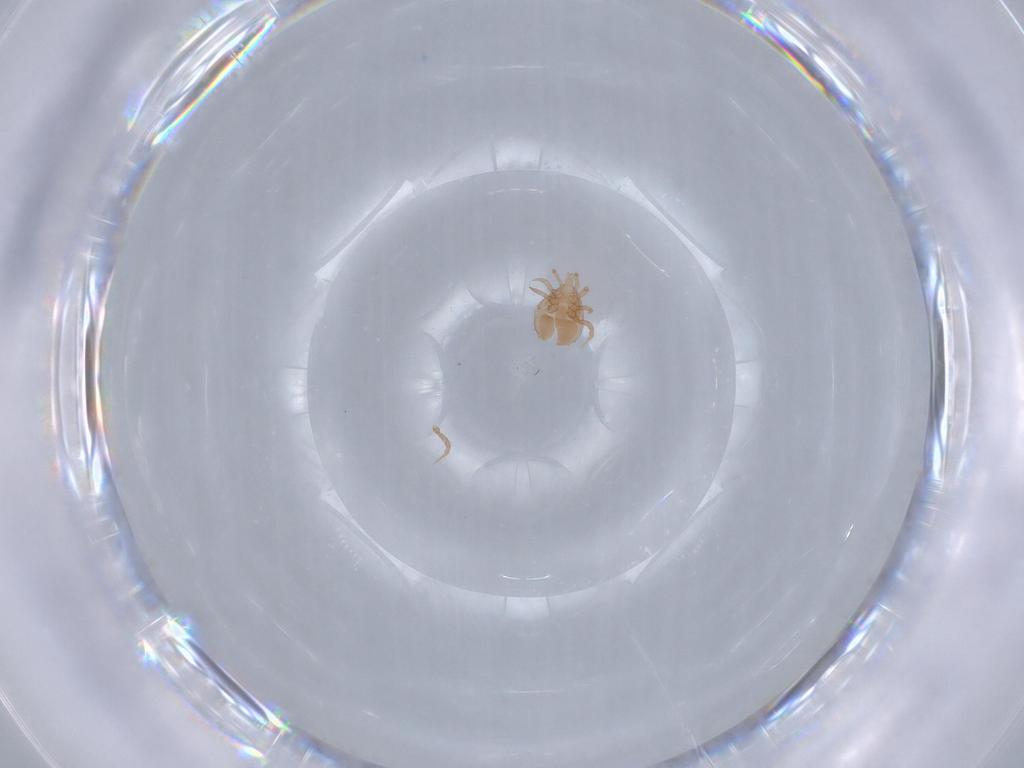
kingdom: Animalia
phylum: Arthropoda
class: Arachnida
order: Mesostigmata
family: Blattisociidae
